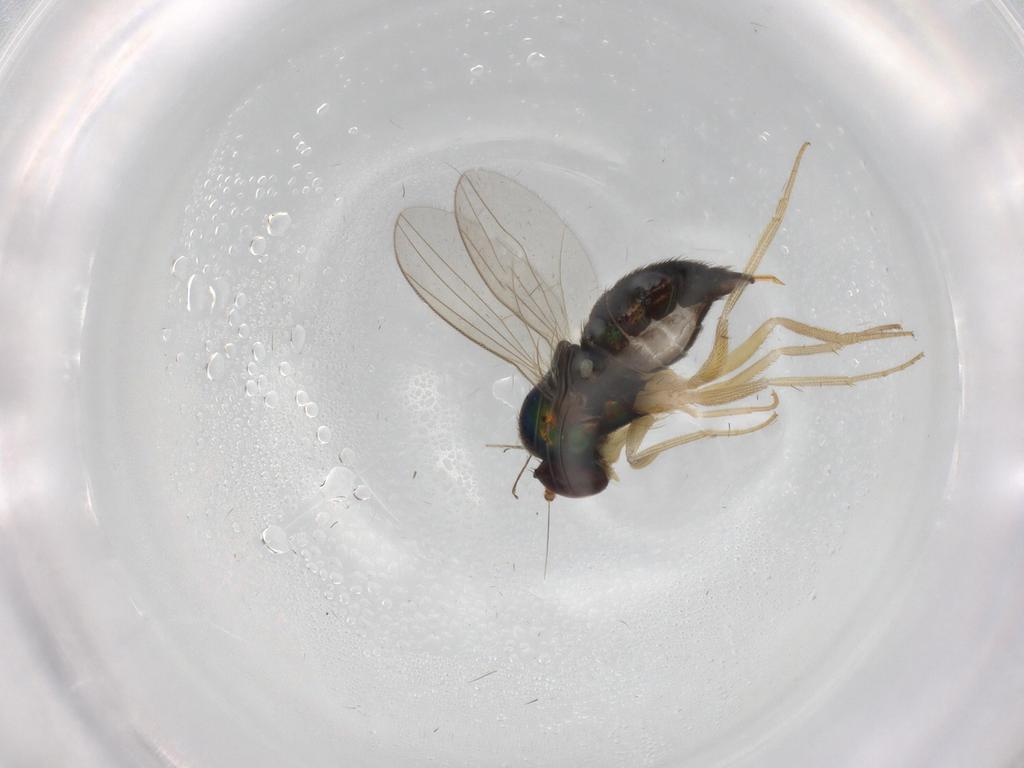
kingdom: Animalia
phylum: Arthropoda
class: Insecta
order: Diptera
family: Dolichopodidae
